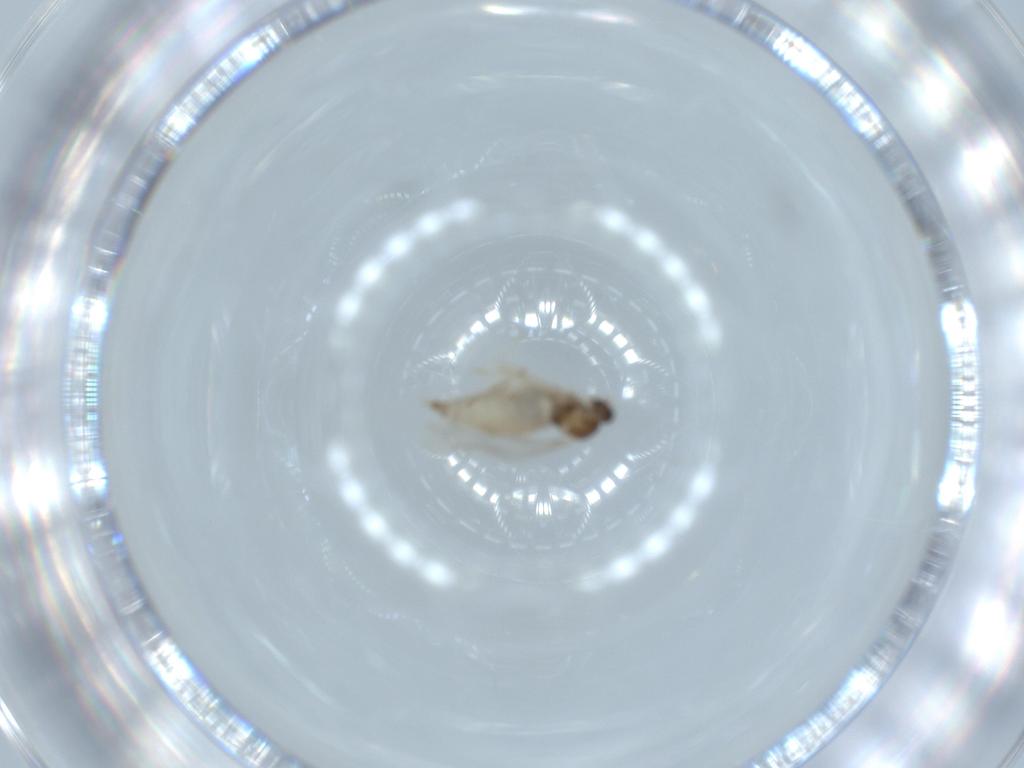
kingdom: Animalia
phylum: Arthropoda
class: Insecta
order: Diptera
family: Cecidomyiidae
